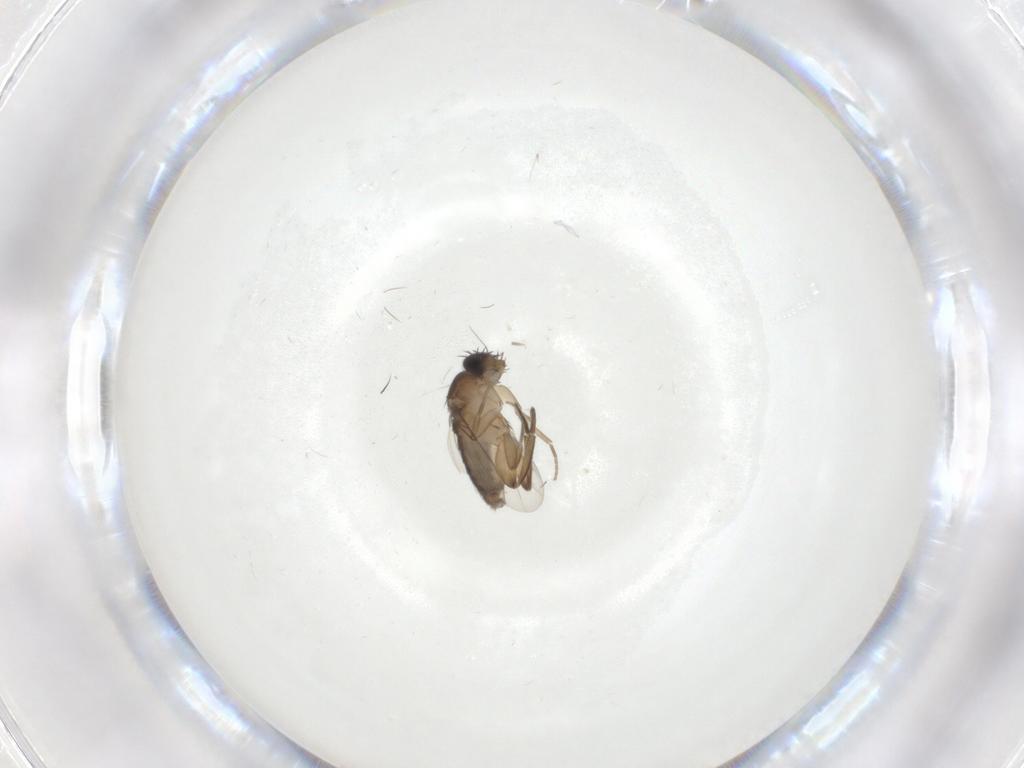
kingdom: Animalia
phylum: Arthropoda
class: Insecta
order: Diptera
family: Phoridae
